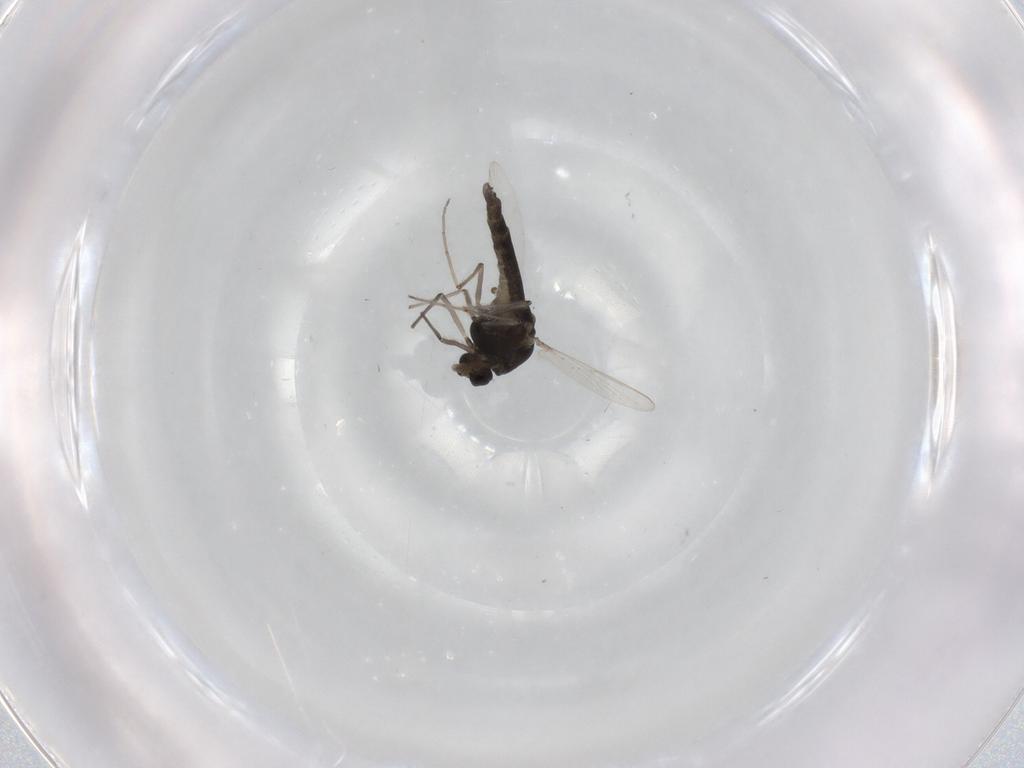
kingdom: Animalia
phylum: Arthropoda
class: Insecta
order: Diptera
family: Chironomidae
